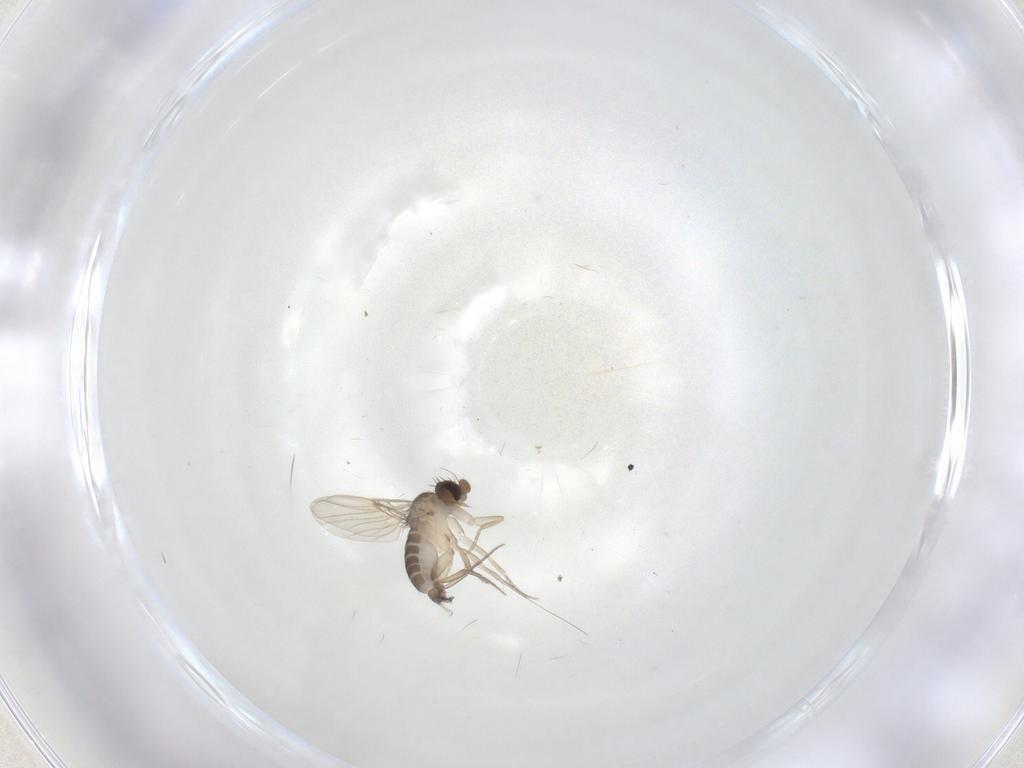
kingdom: Animalia
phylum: Arthropoda
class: Insecta
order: Diptera
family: Phoridae
